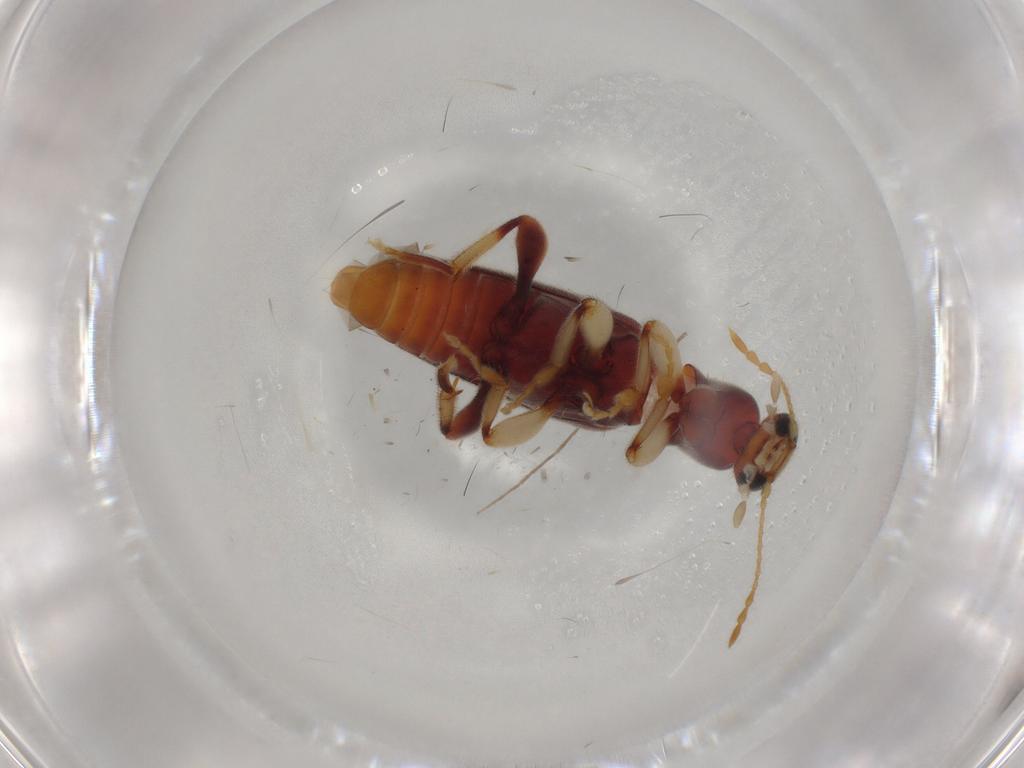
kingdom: Animalia
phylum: Arthropoda
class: Insecta
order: Coleoptera
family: Anthicidae
